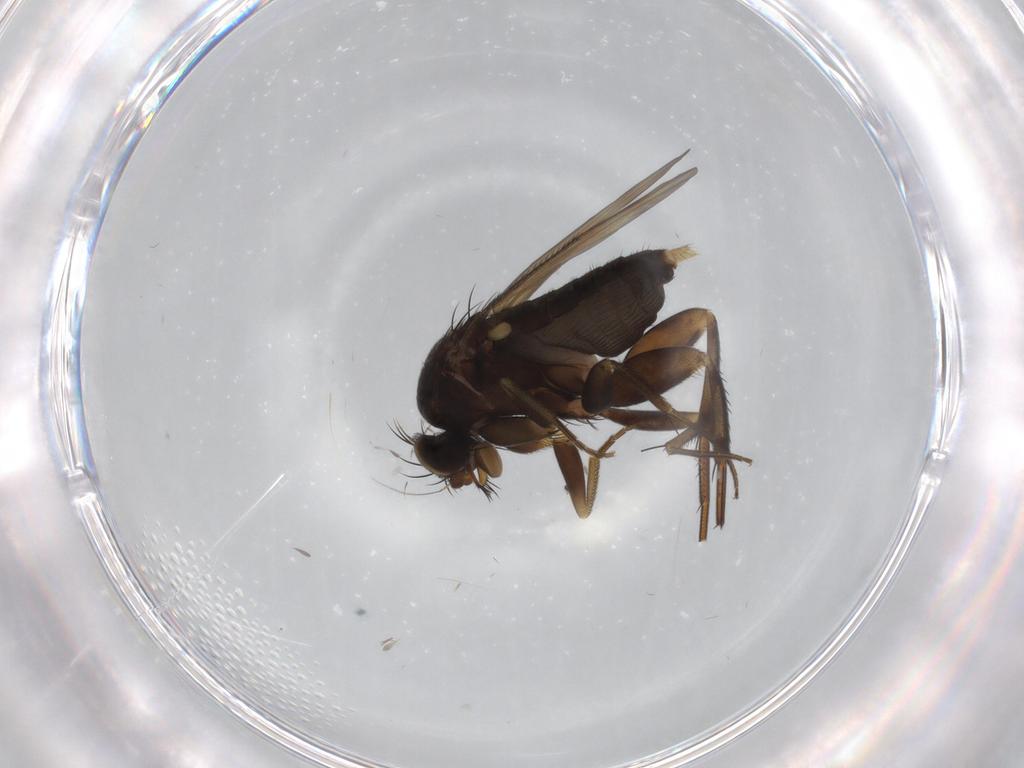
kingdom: Animalia
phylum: Arthropoda
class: Insecta
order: Diptera
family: Phoridae
